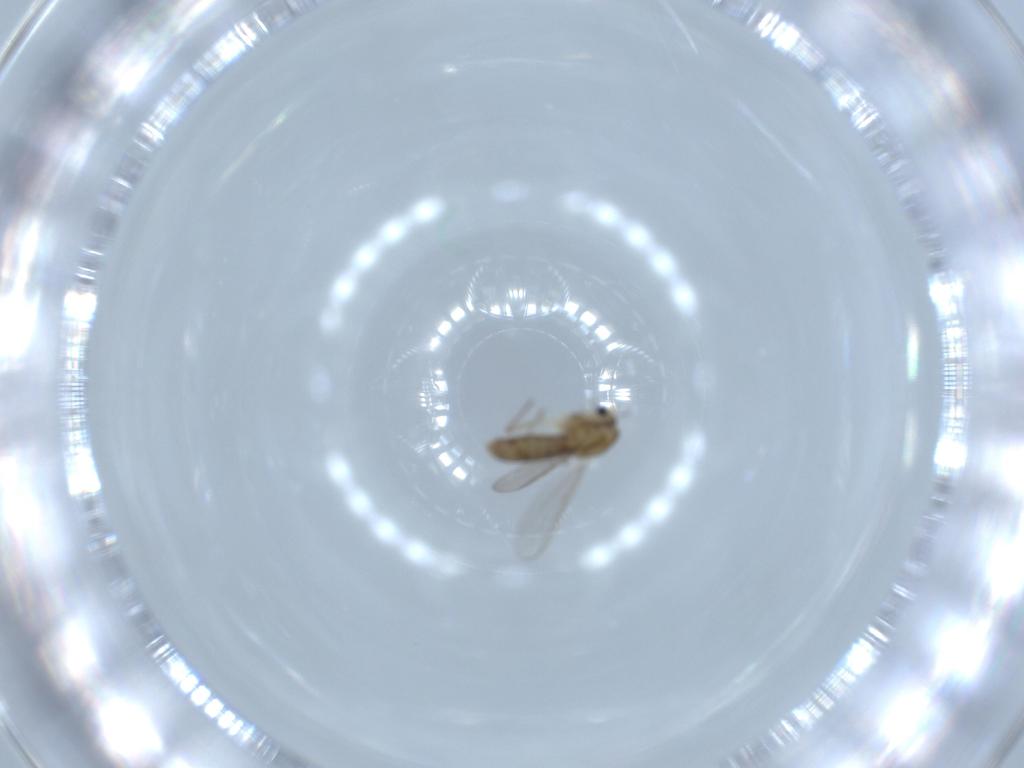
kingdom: Animalia
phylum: Arthropoda
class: Insecta
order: Diptera
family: Chironomidae
